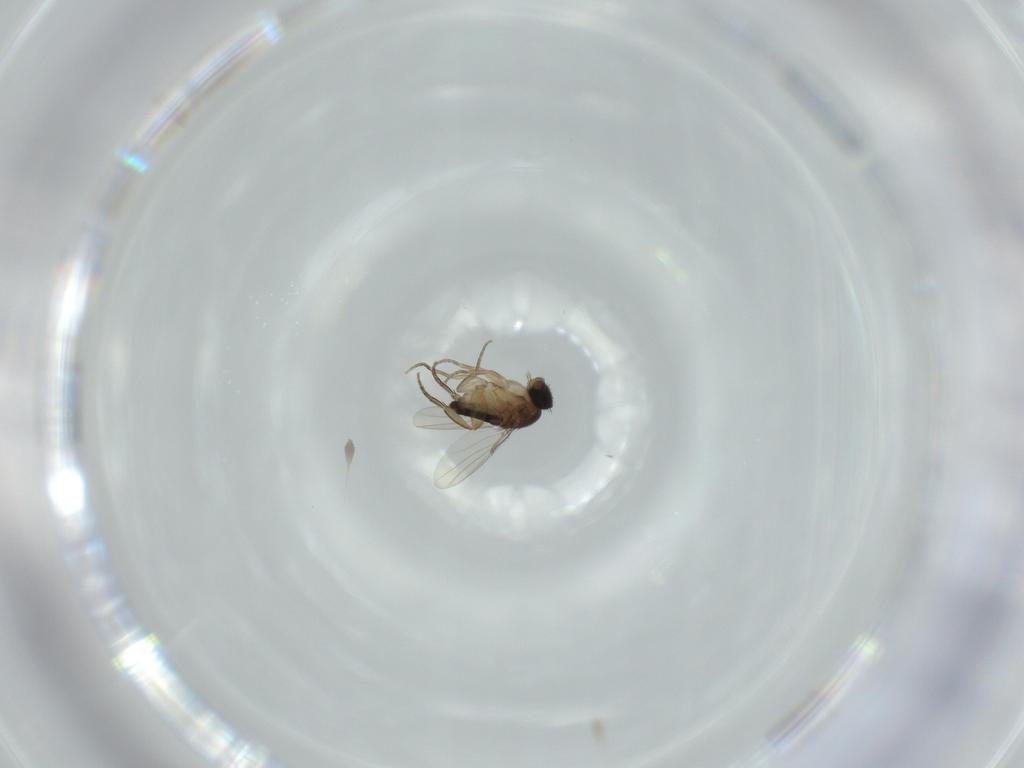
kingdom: Animalia
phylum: Arthropoda
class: Insecta
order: Diptera
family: Phoridae
